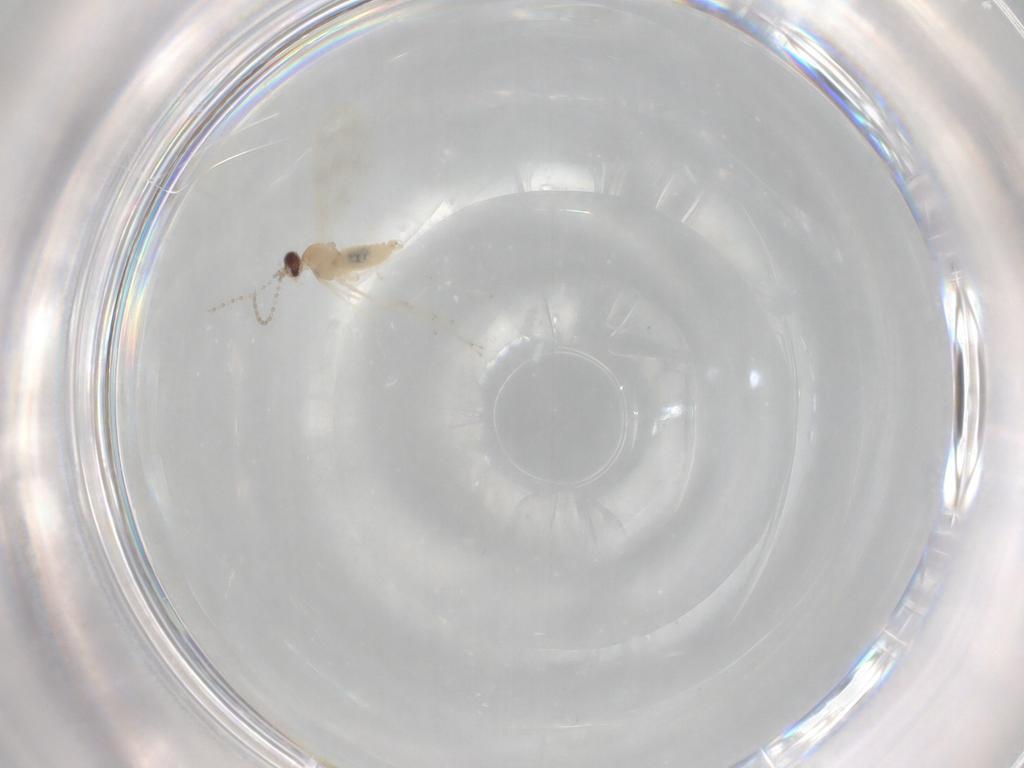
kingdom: Animalia
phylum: Arthropoda
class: Insecta
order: Diptera
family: Cecidomyiidae
